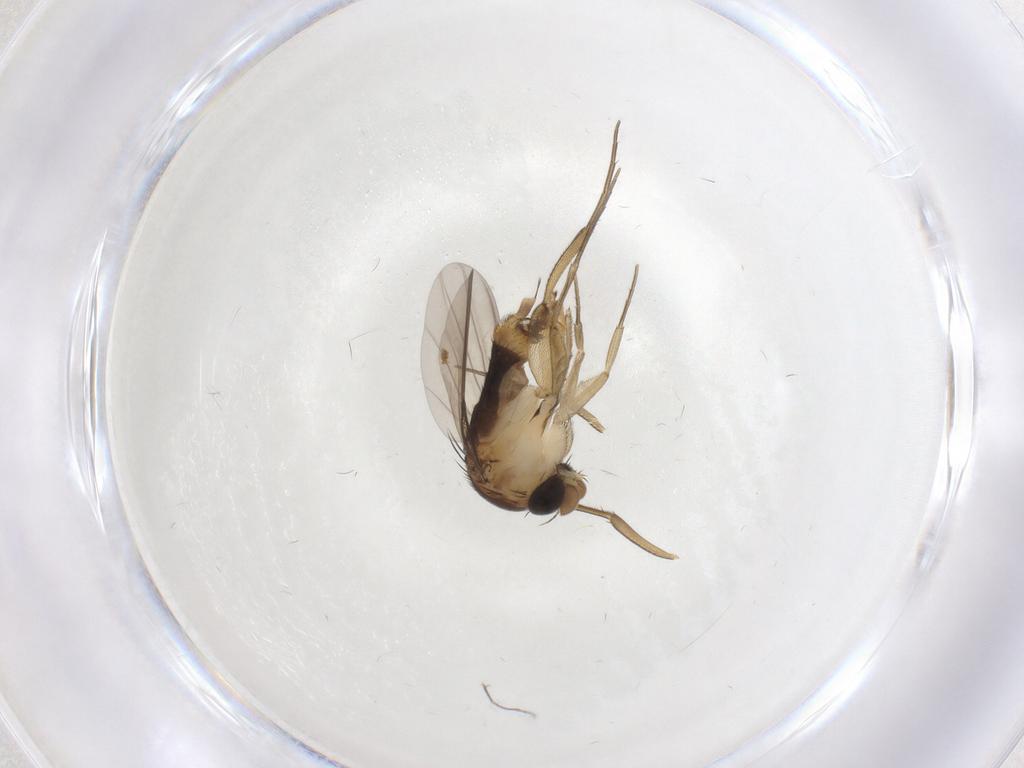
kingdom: Animalia
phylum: Arthropoda
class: Insecta
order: Diptera
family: Phoridae
